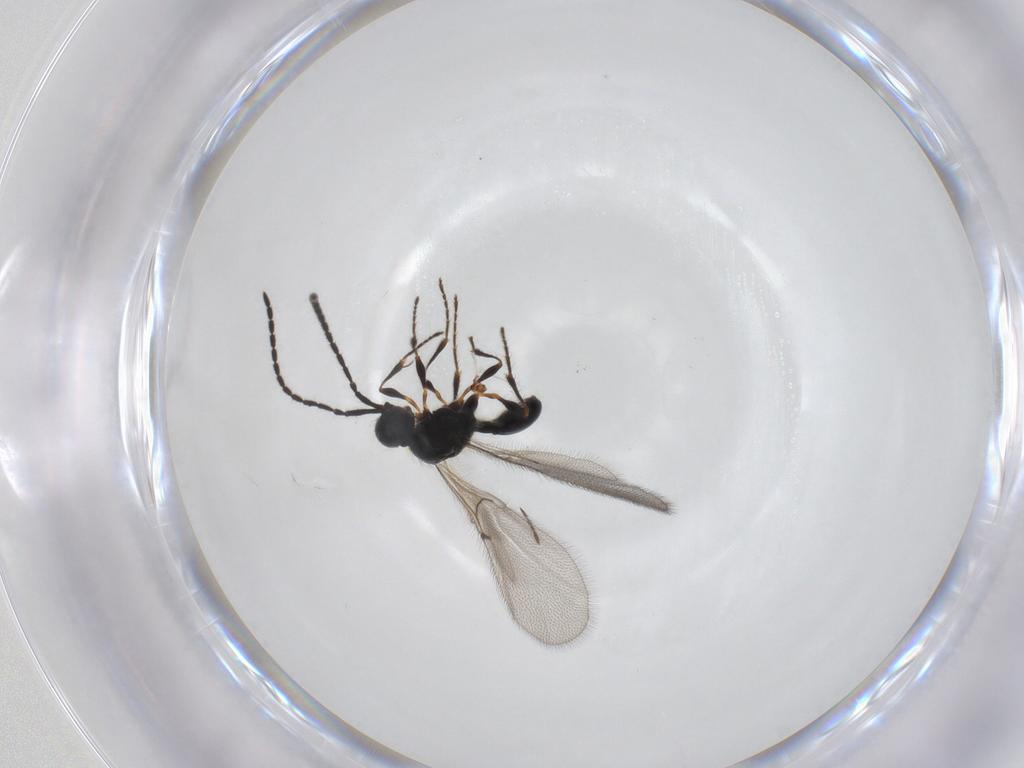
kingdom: Animalia
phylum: Arthropoda
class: Insecta
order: Hymenoptera
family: Diapriidae
